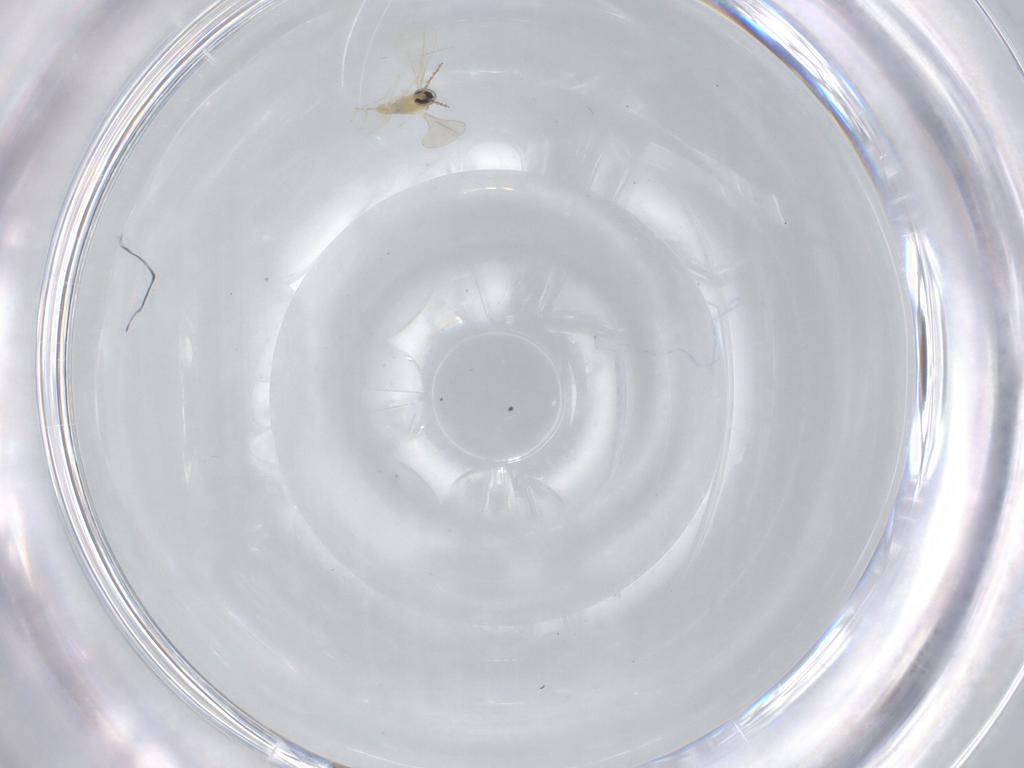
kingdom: Animalia
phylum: Arthropoda
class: Insecta
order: Diptera
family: Cecidomyiidae
